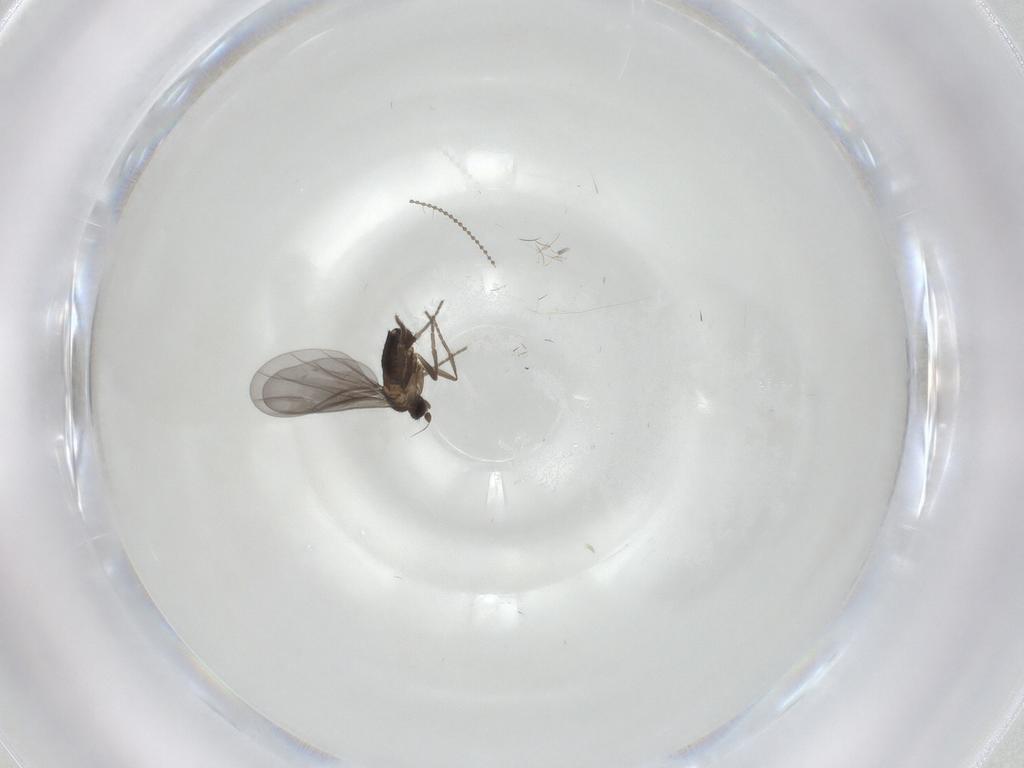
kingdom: Animalia
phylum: Arthropoda
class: Insecta
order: Diptera
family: Phoridae
